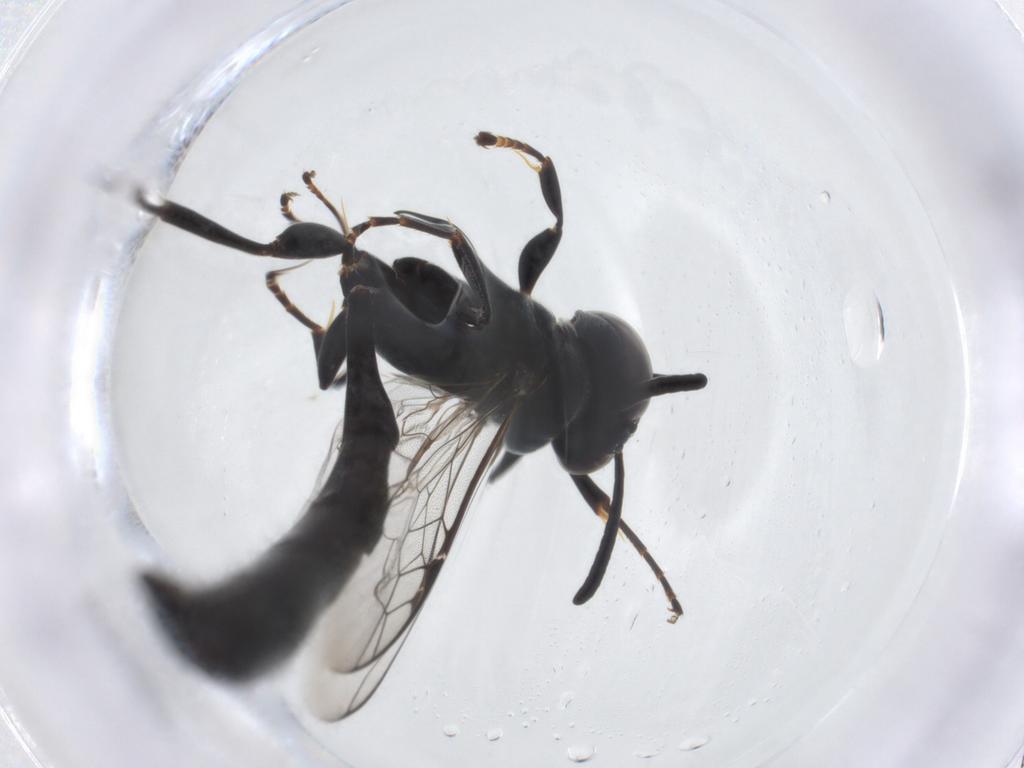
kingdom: Animalia
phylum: Arthropoda
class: Insecta
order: Hymenoptera
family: Crabronidae
